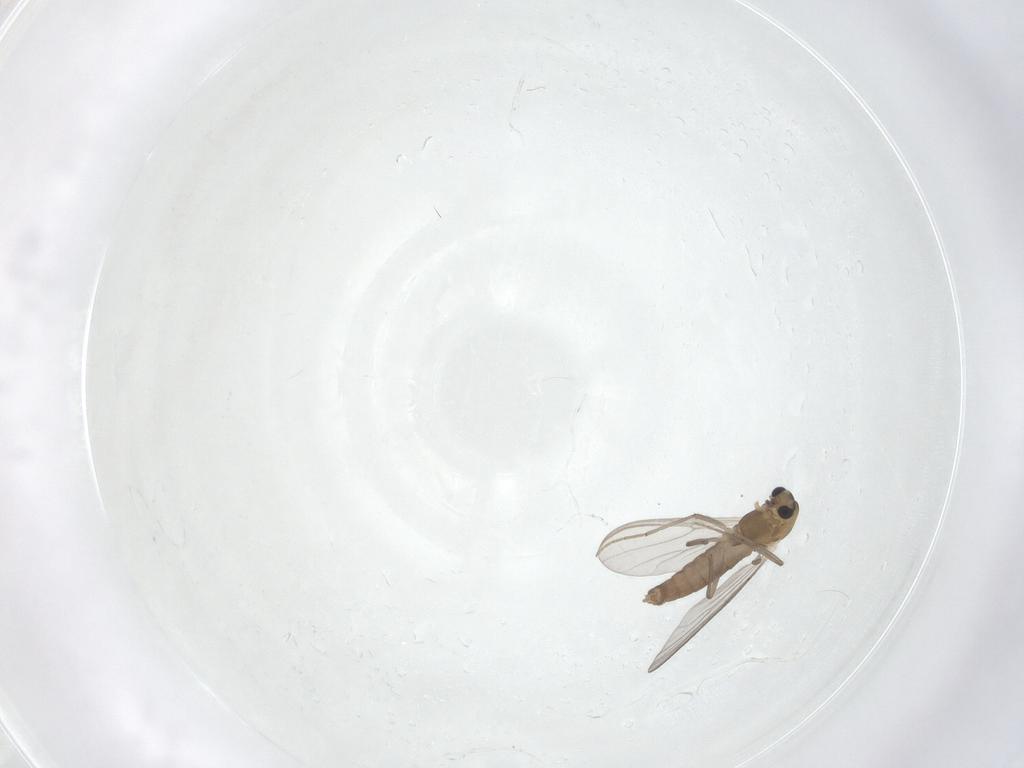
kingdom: Animalia
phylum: Arthropoda
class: Insecta
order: Diptera
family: Chironomidae
